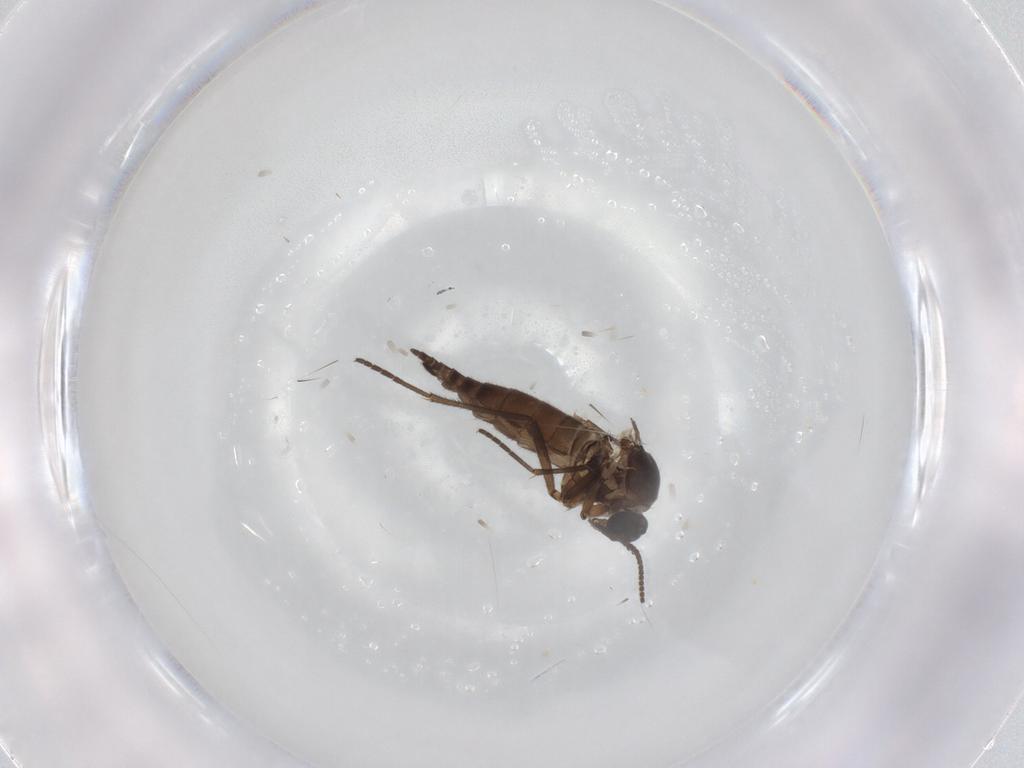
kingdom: Animalia
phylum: Arthropoda
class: Insecta
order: Diptera
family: Sciaridae
